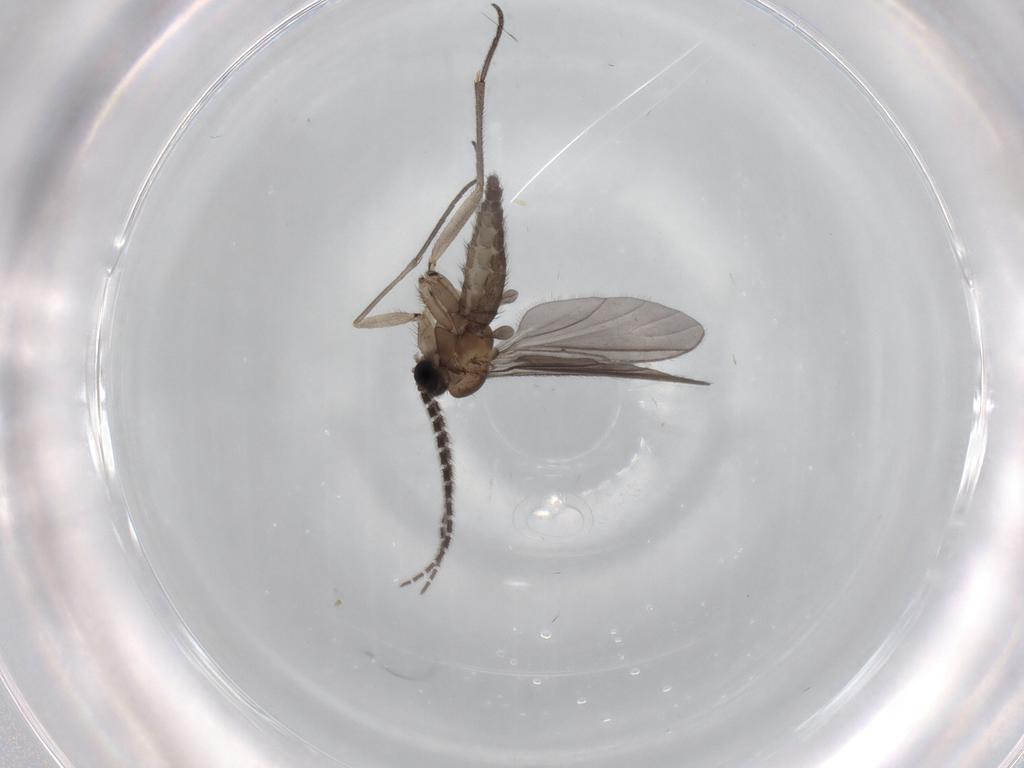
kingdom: Animalia
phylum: Arthropoda
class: Insecta
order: Diptera
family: Sciaridae
